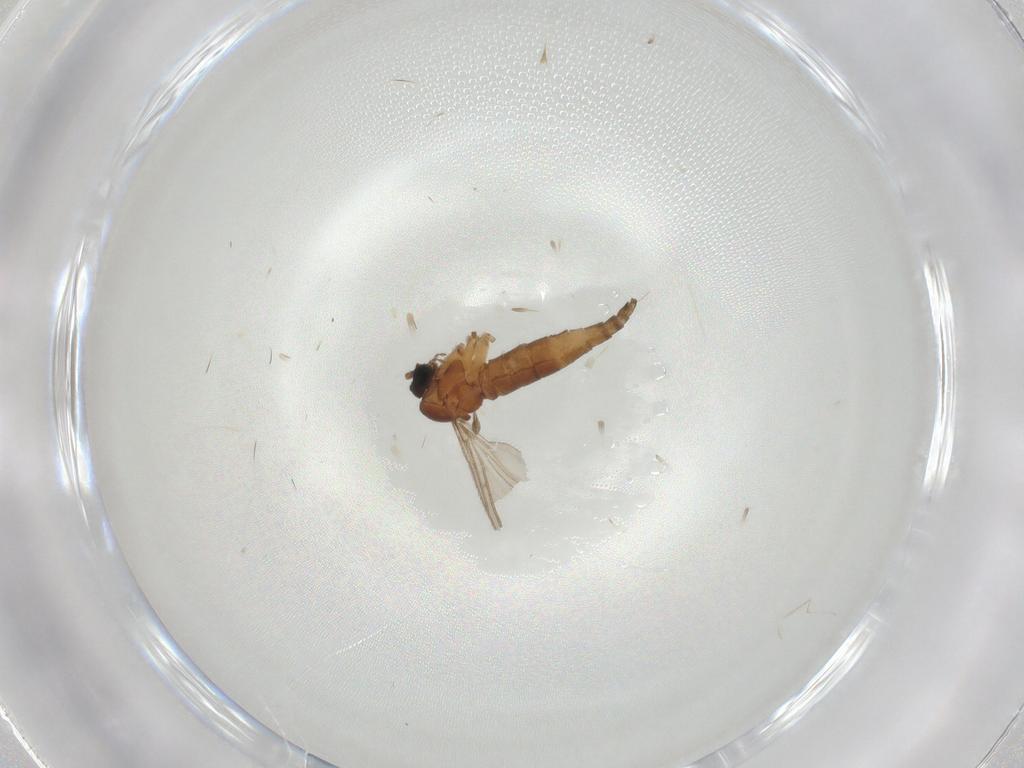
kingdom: Animalia
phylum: Arthropoda
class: Insecta
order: Diptera
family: Sciaridae
